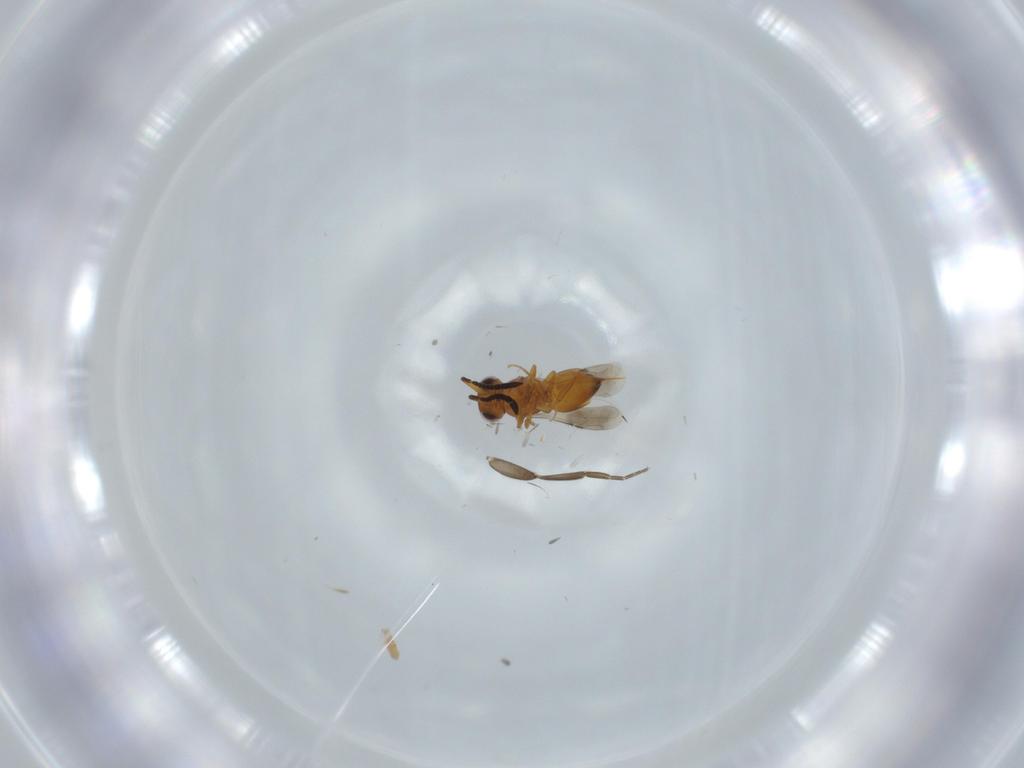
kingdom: Animalia
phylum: Arthropoda
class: Insecta
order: Hymenoptera
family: Ceraphronidae
